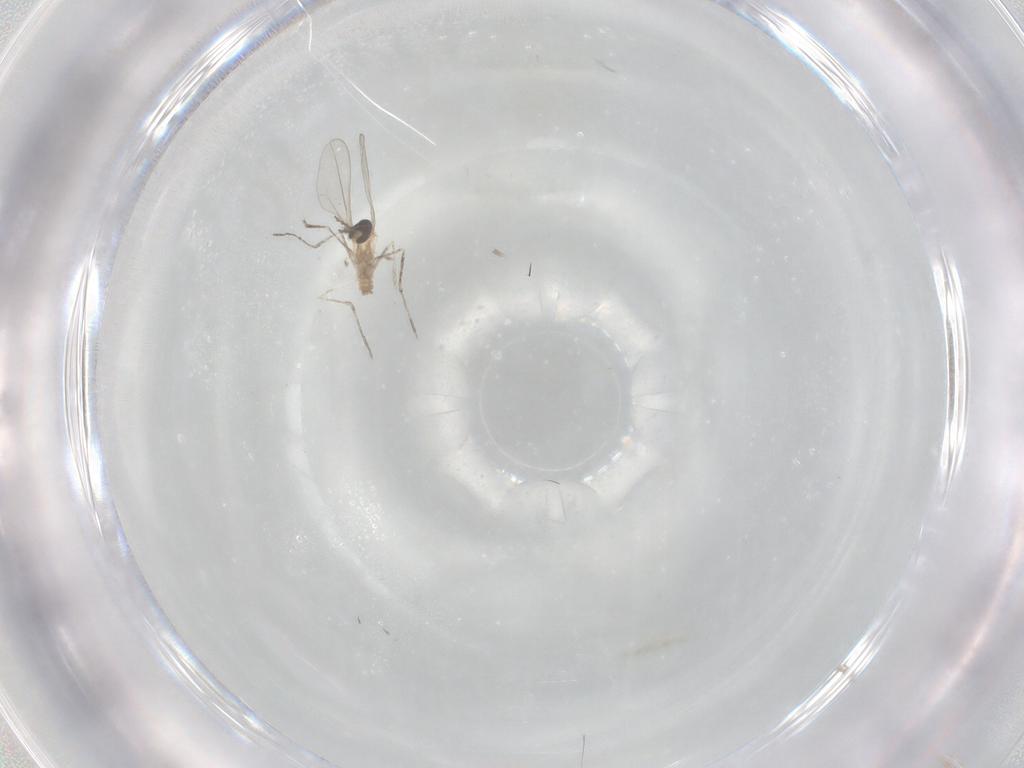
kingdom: Animalia
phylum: Arthropoda
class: Insecta
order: Diptera
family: Cecidomyiidae
